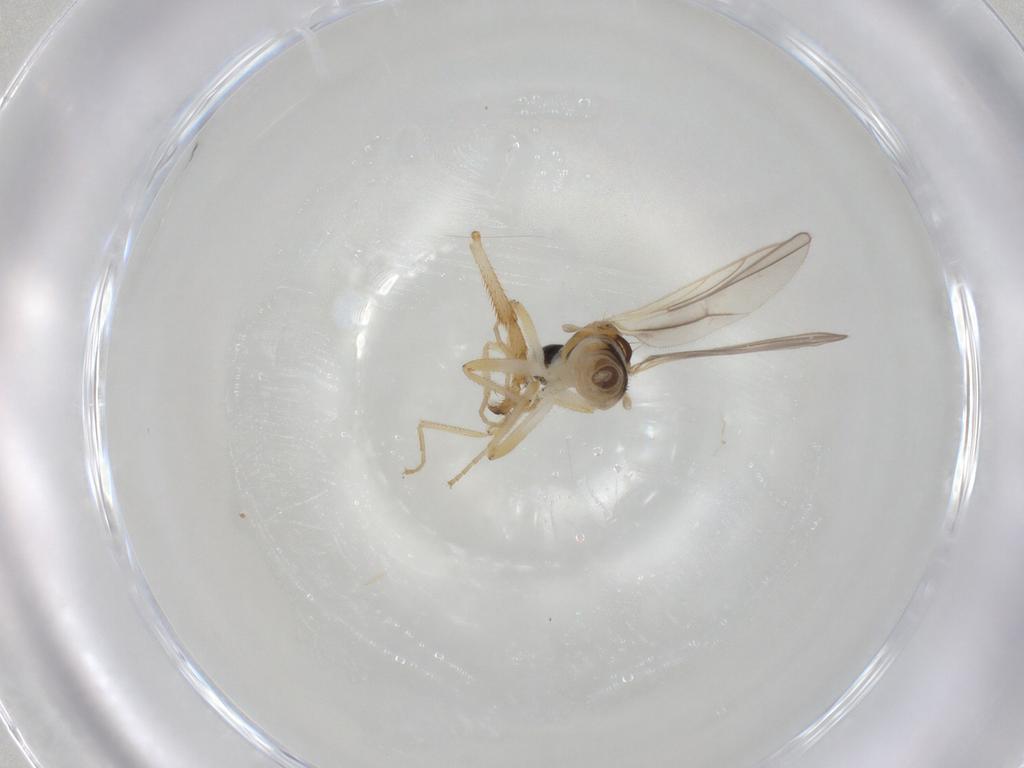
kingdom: Animalia
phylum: Arthropoda
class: Insecta
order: Diptera
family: Hybotidae
